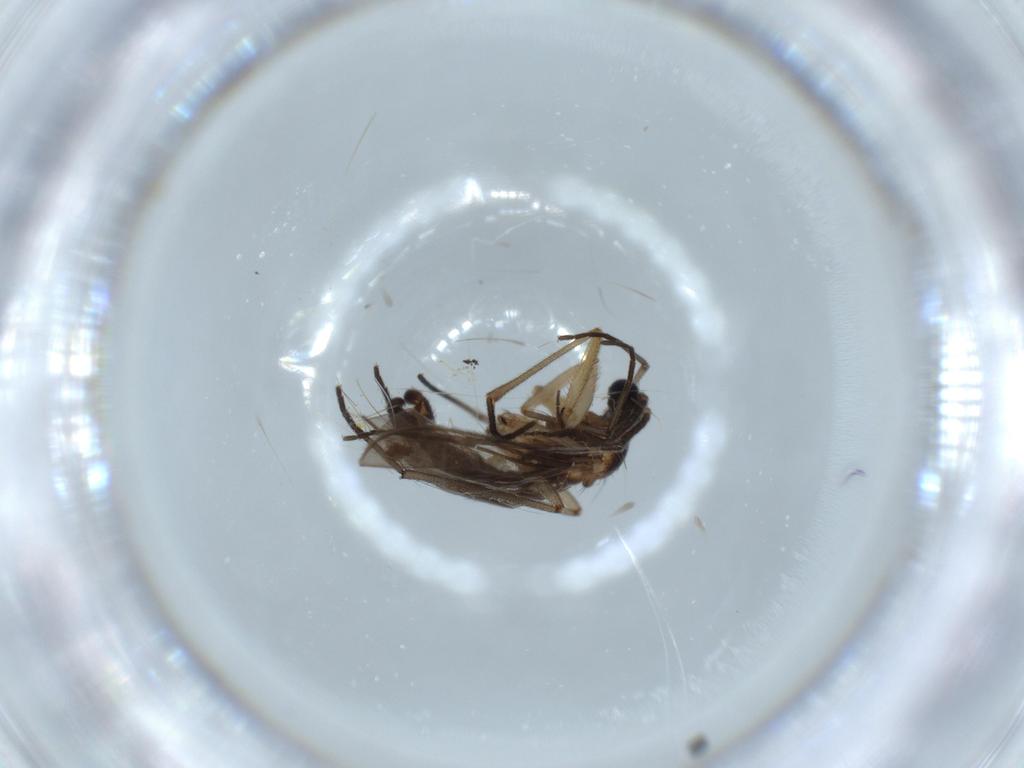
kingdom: Animalia
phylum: Arthropoda
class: Insecta
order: Diptera
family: Sciaridae
